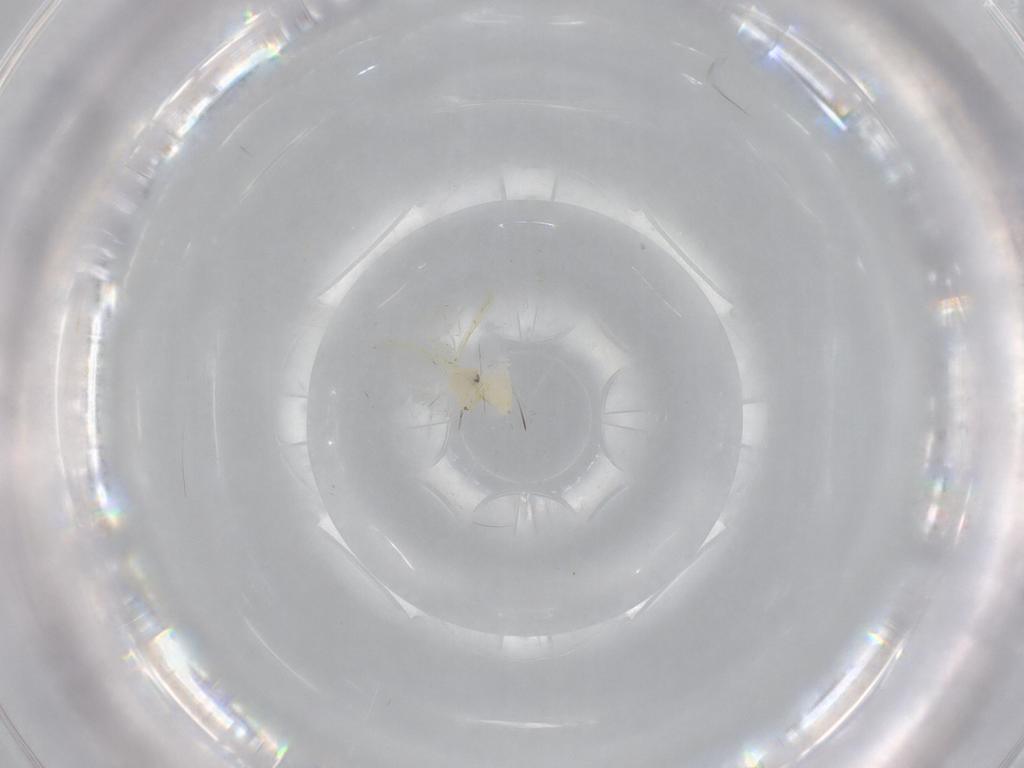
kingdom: Animalia
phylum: Arthropoda
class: Insecta
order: Hemiptera
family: Aleyrodidae
